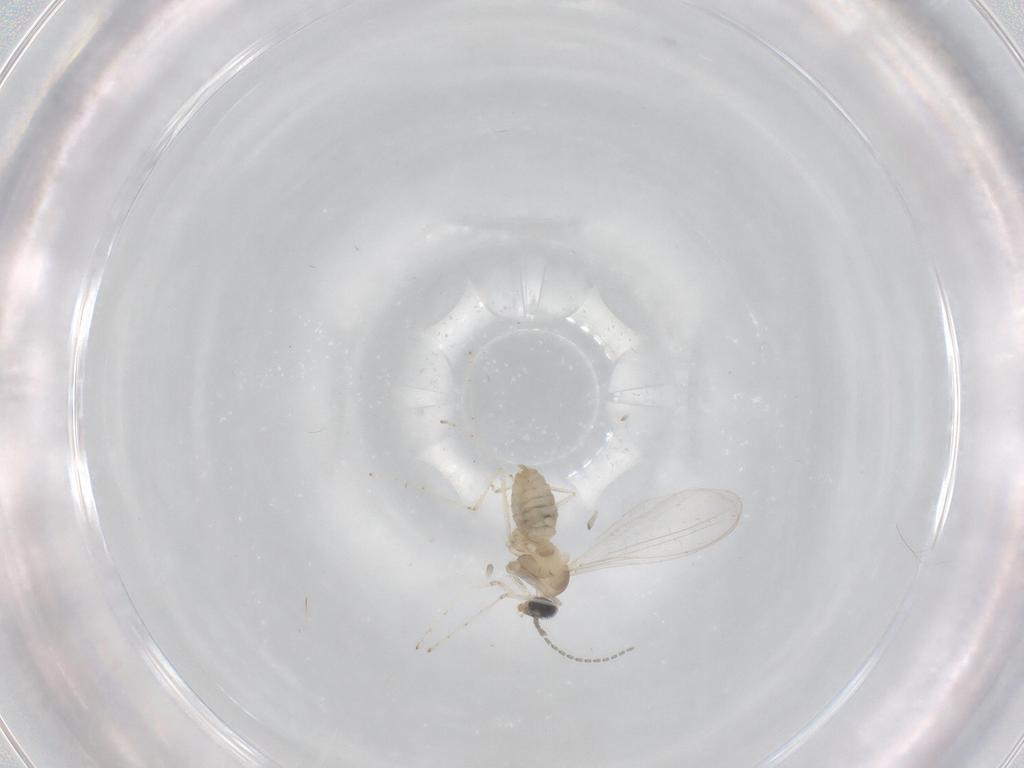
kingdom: Animalia
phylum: Arthropoda
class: Insecta
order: Diptera
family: Cecidomyiidae
